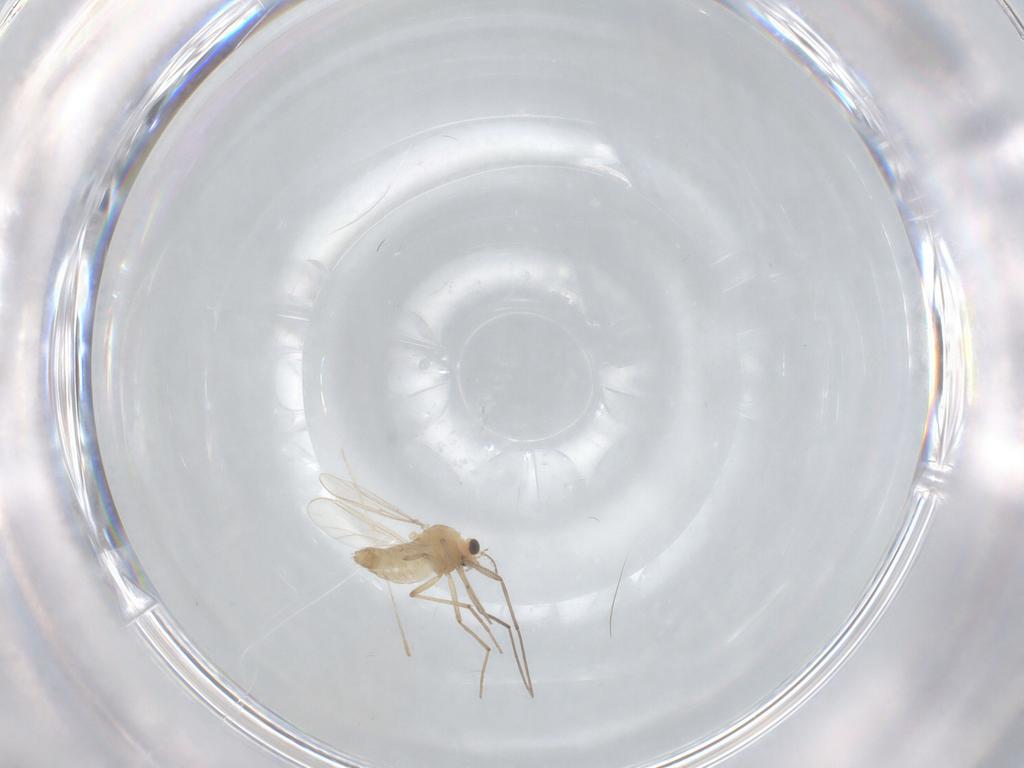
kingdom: Animalia
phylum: Arthropoda
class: Insecta
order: Diptera
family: Chironomidae
